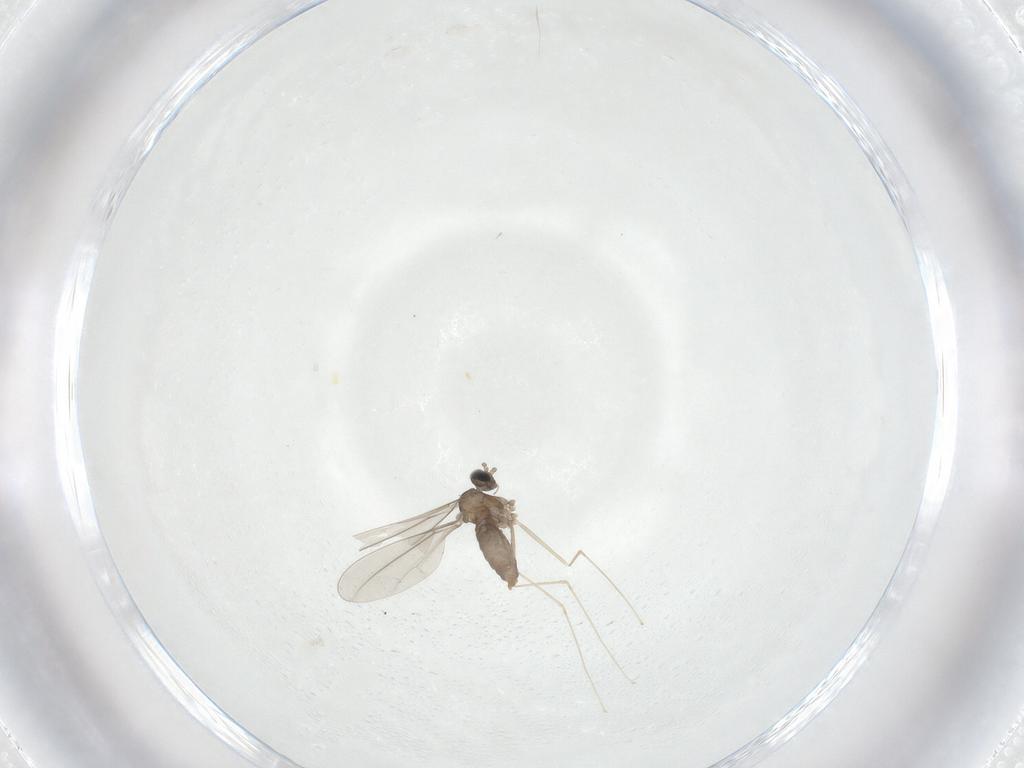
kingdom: Animalia
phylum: Arthropoda
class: Insecta
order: Diptera
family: Cecidomyiidae
